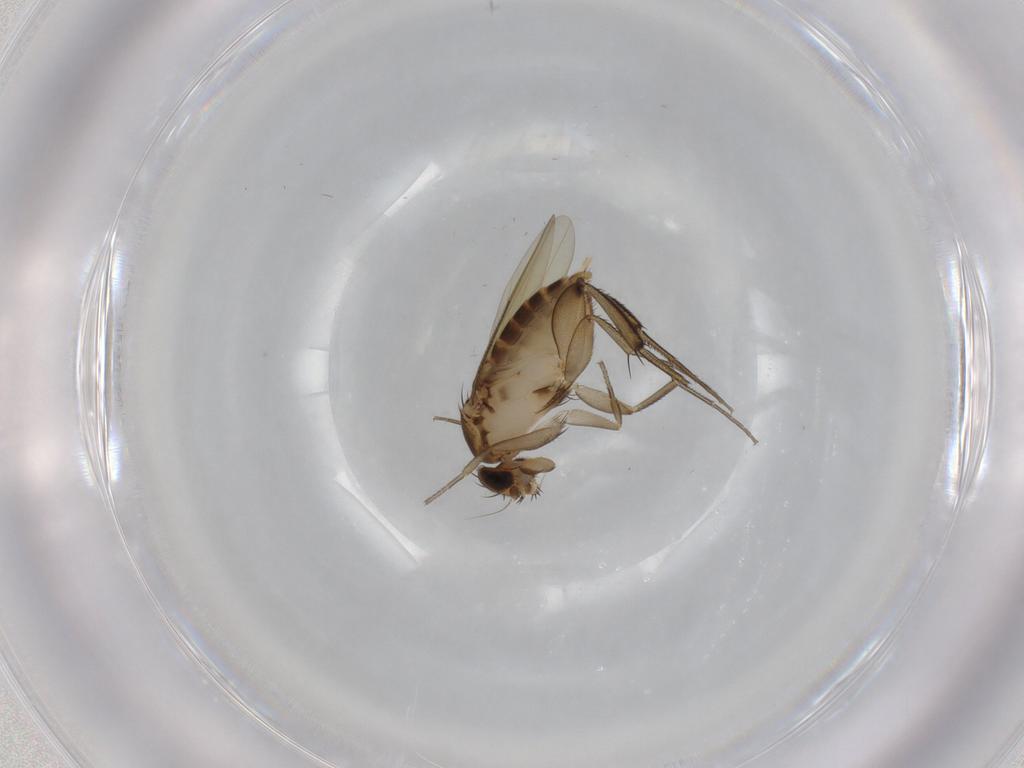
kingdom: Animalia
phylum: Arthropoda
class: Insecta
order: Diptera
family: Phoridae
